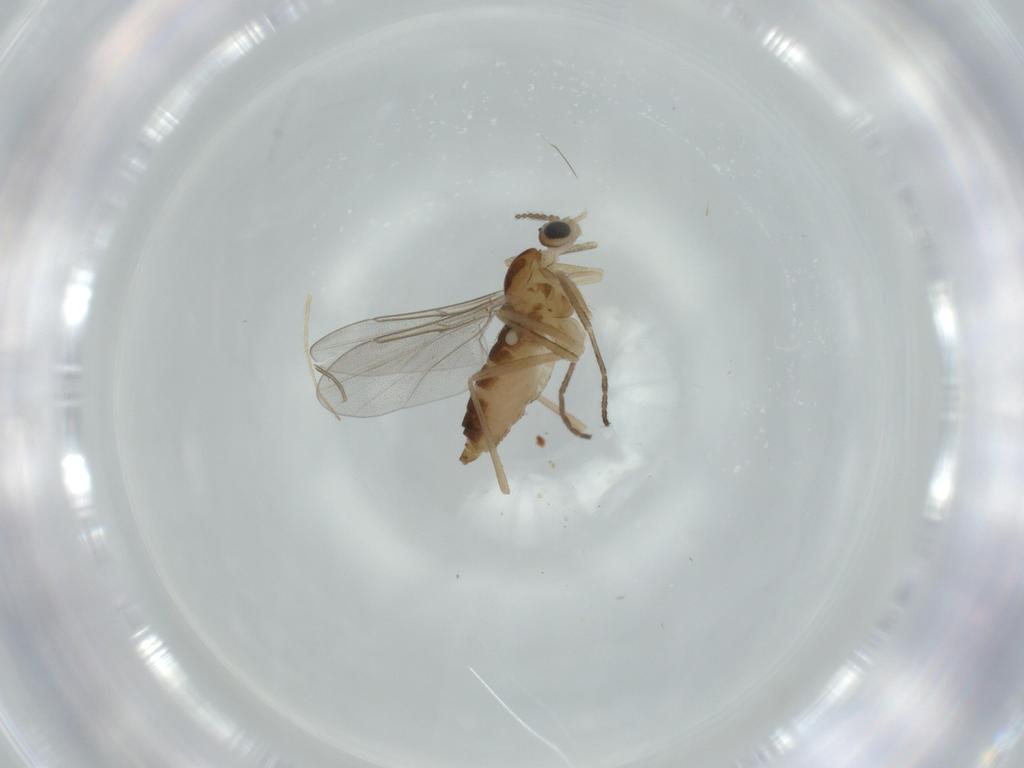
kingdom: Animalia
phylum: Arthropoda
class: Insecta
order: Diptera
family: Cecidomyiidae
